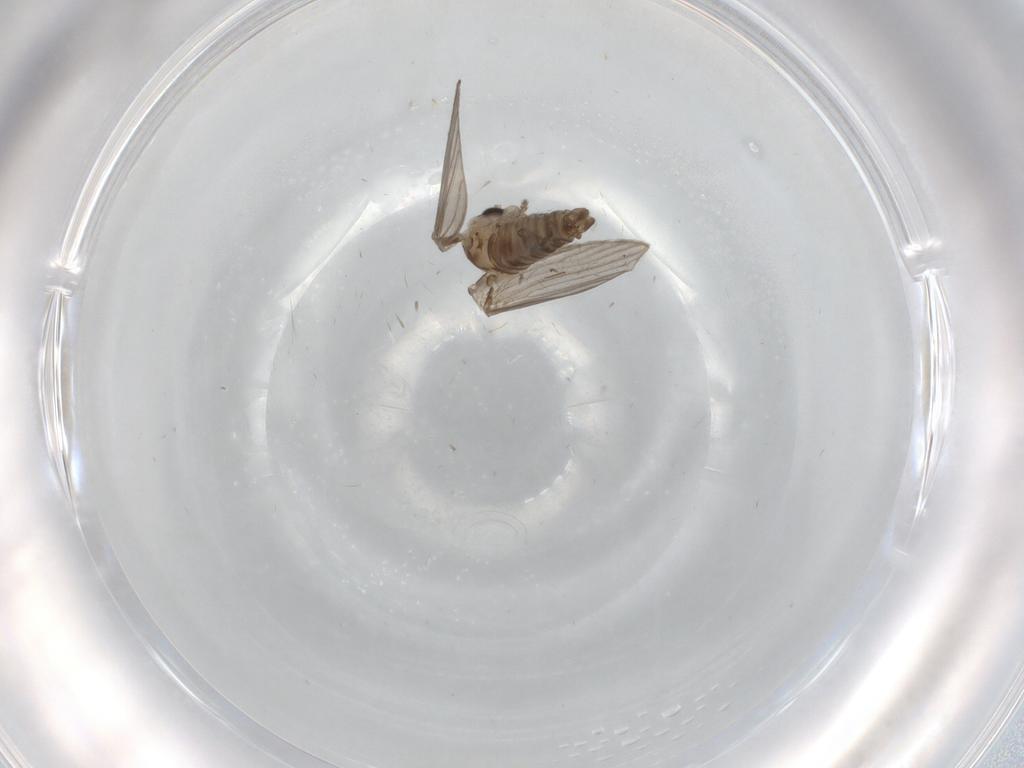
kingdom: Animalia
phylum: Arthropoda
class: Insecta
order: Diptera
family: Psychodidae
